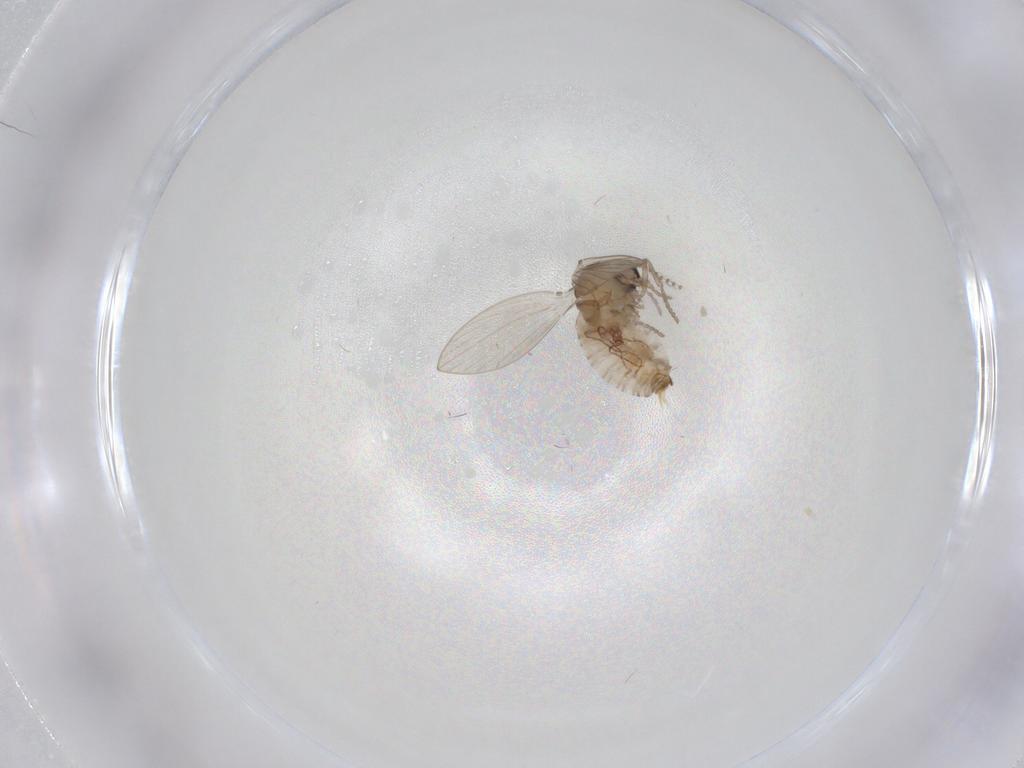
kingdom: Animalia
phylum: Arthropoda
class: Insecta
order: Diptera
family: Psychodidae
